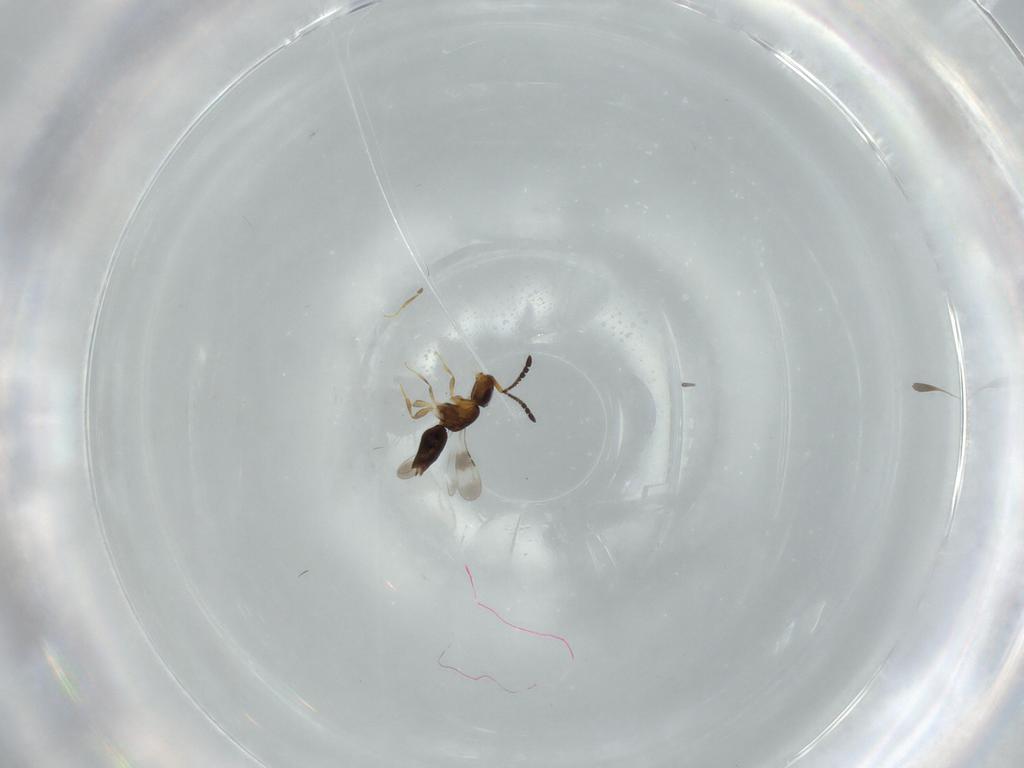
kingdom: Animalia
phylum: Arthropoda
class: Insecta
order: Hymenoptera
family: Ceraphronidae
